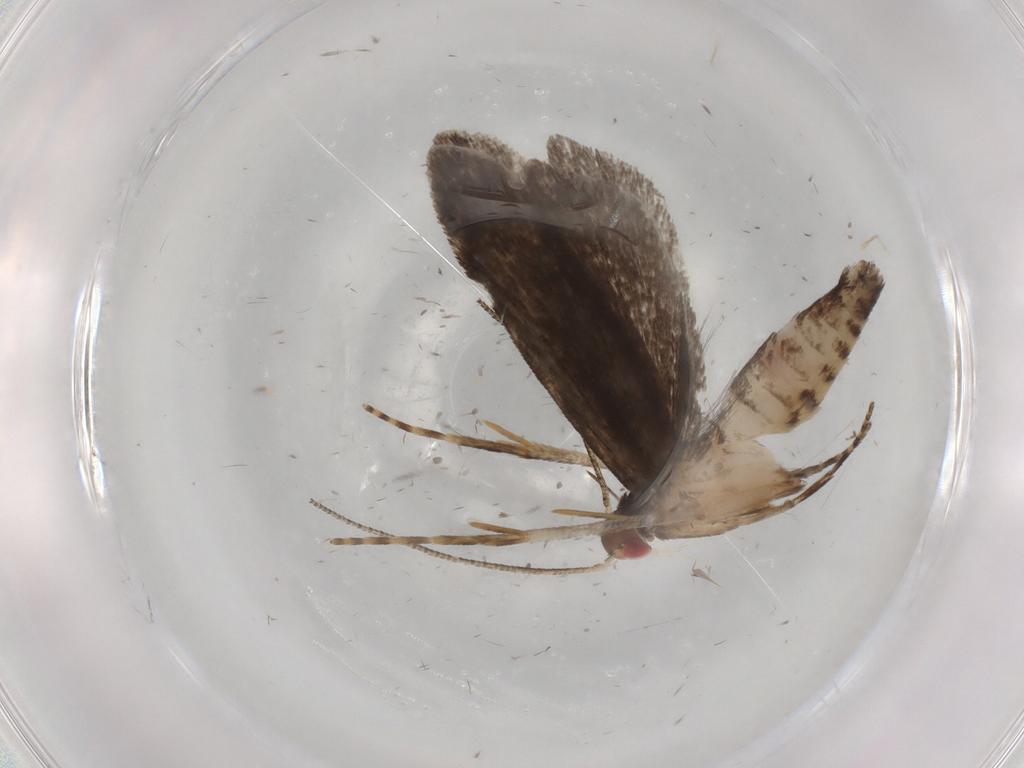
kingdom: Animalia
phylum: Arthropoda
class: Insecta
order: Lepidoptera
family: Gelechiidae
